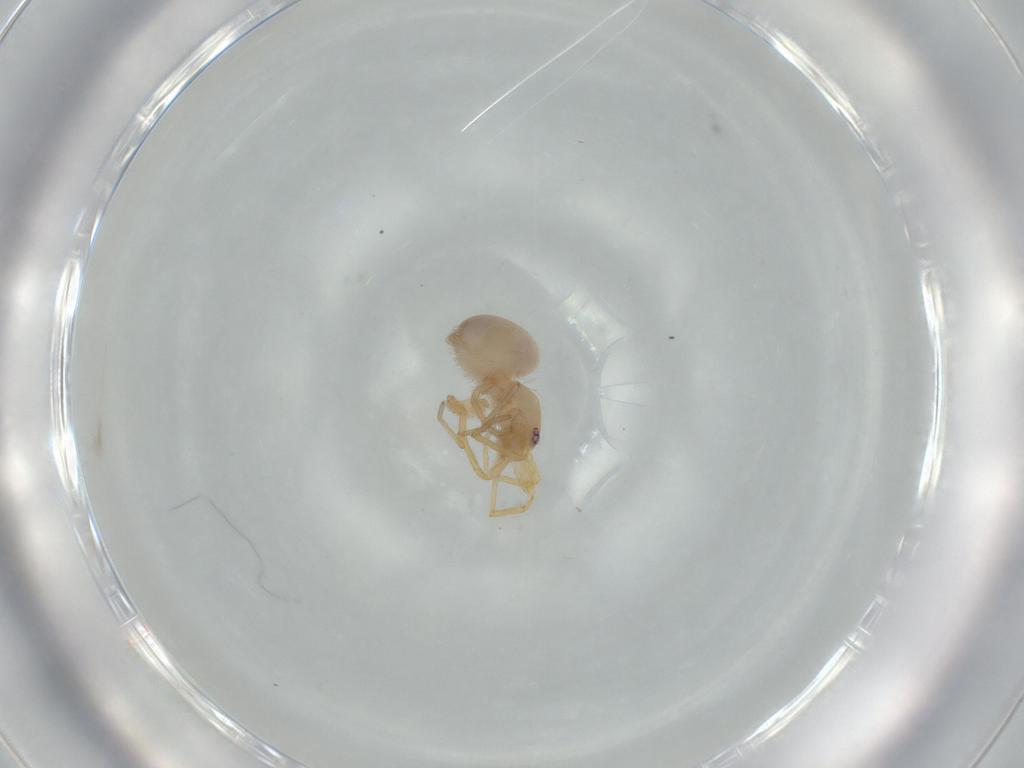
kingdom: Animalia
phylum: Arthropoda
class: Arachnida
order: Araneae
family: Oonopidae
